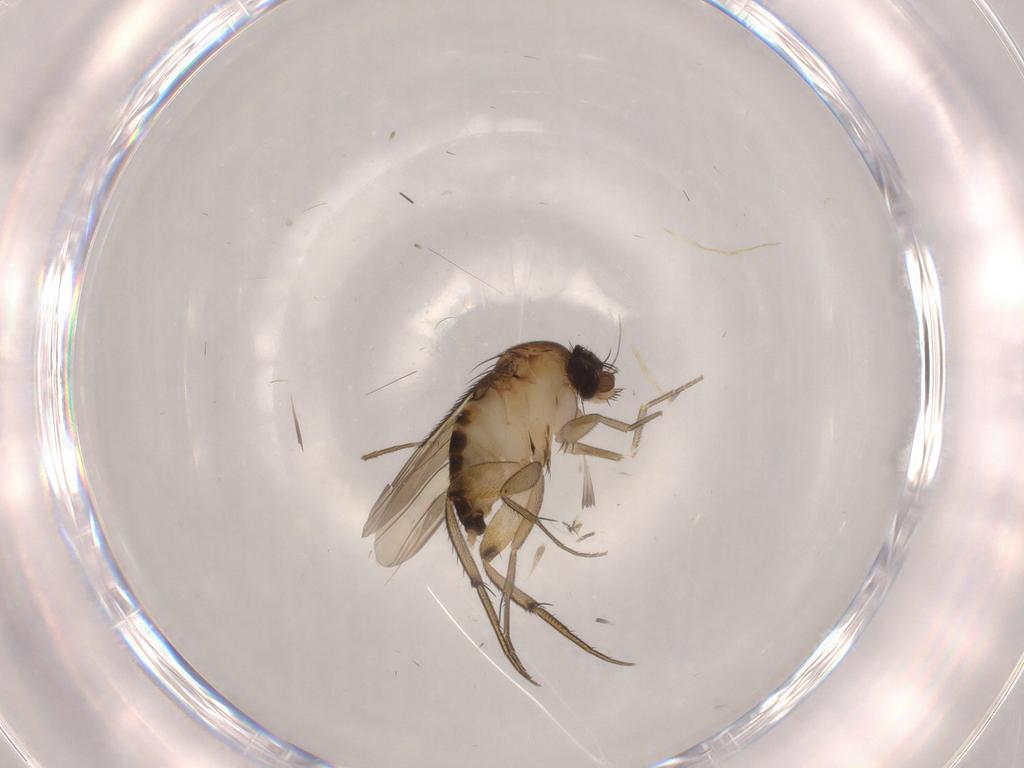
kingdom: Animalia
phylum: Arthropoda
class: Insecta
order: Diptera
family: Phoridae
